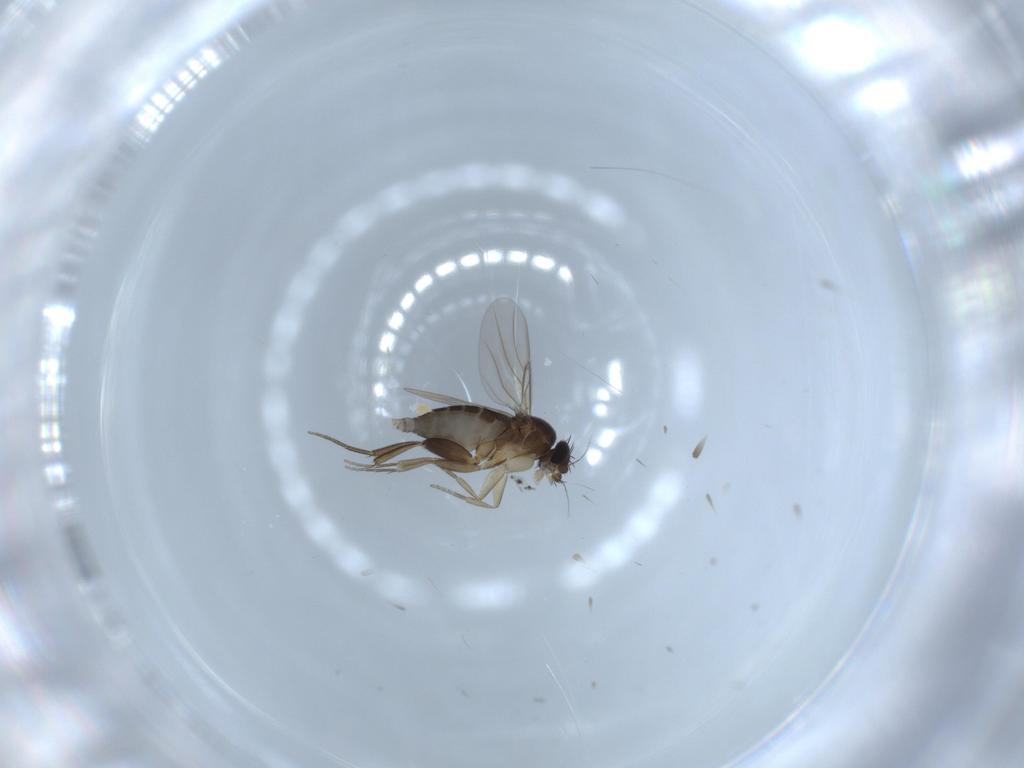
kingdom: Animalia
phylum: Arthropoda
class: Insecta
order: Diptera
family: Phoridae
